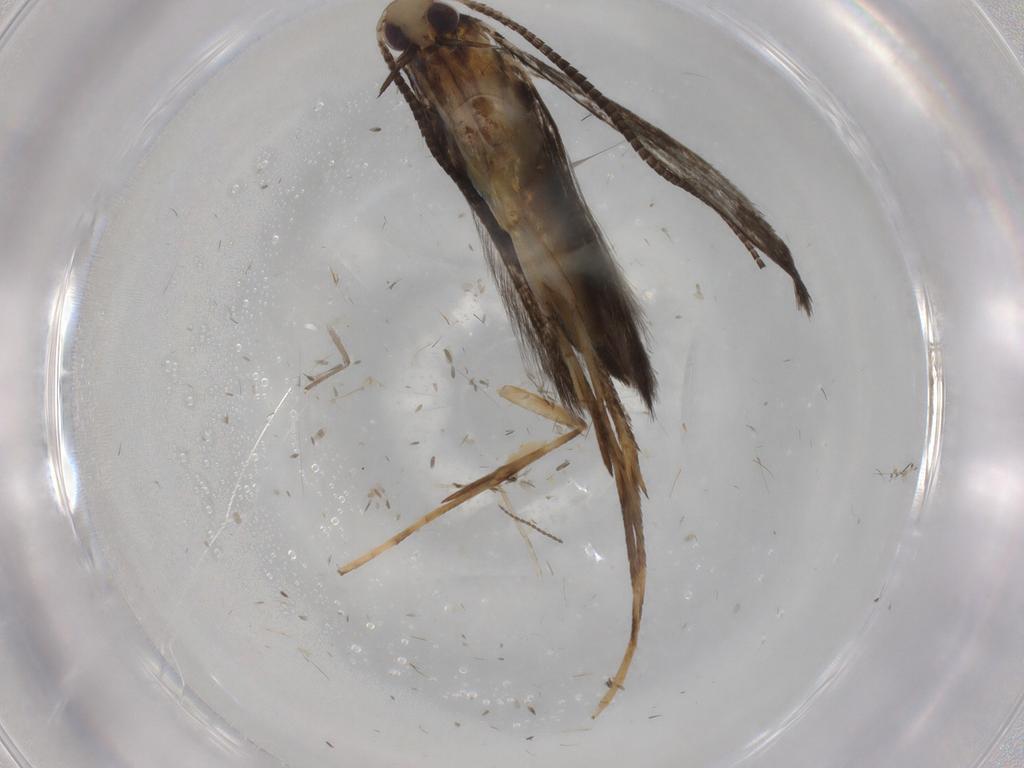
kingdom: Animalia
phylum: Arthropoda
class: Insecta
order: Lepidoptera
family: Gracillariidae
